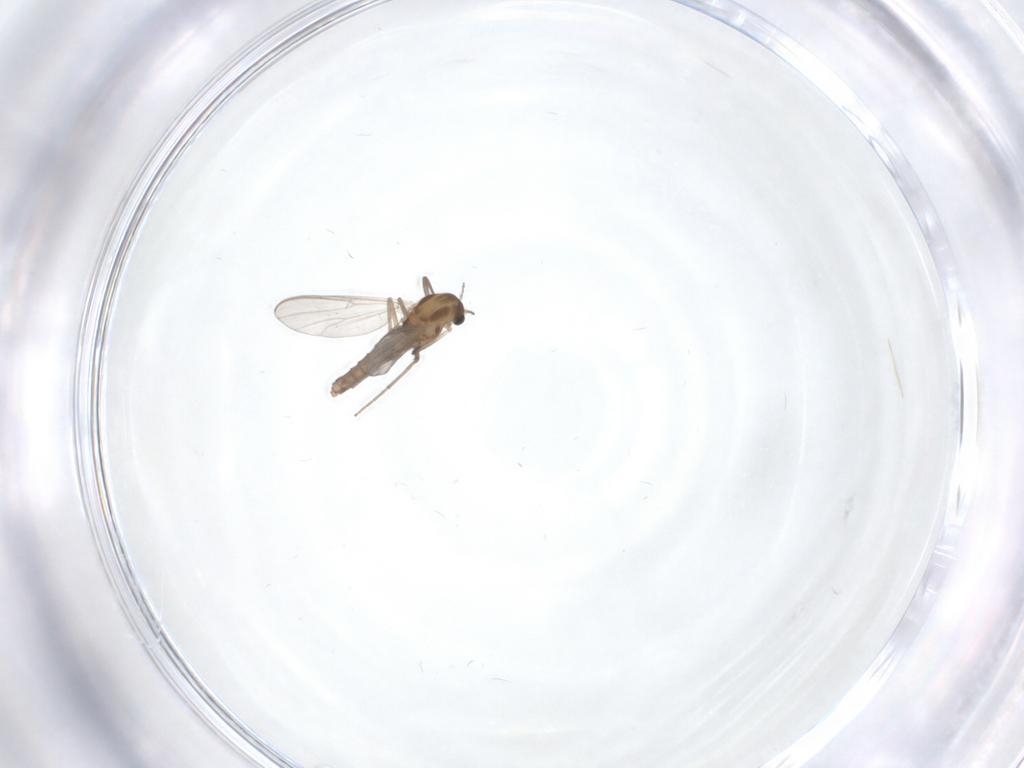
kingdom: Animalia
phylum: Arthropoda
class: Insecta
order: Diptera
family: Chironomidae
